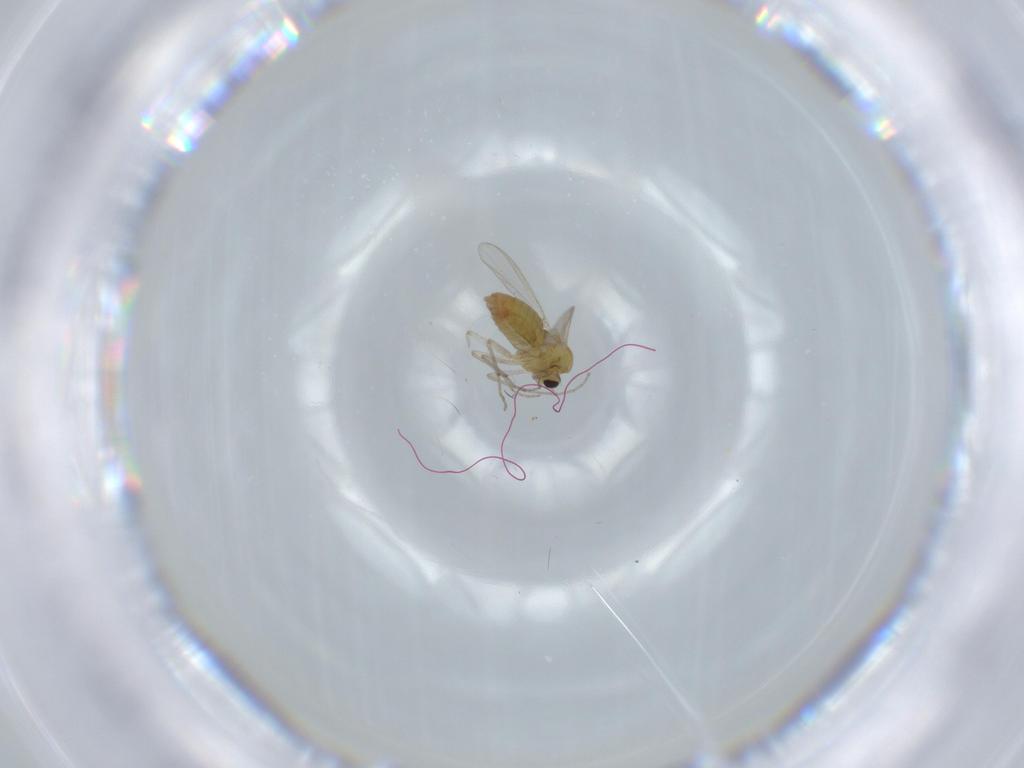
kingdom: Animalia
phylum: Arthropoda
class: Insecta
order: Diptera
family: Chironomidae
